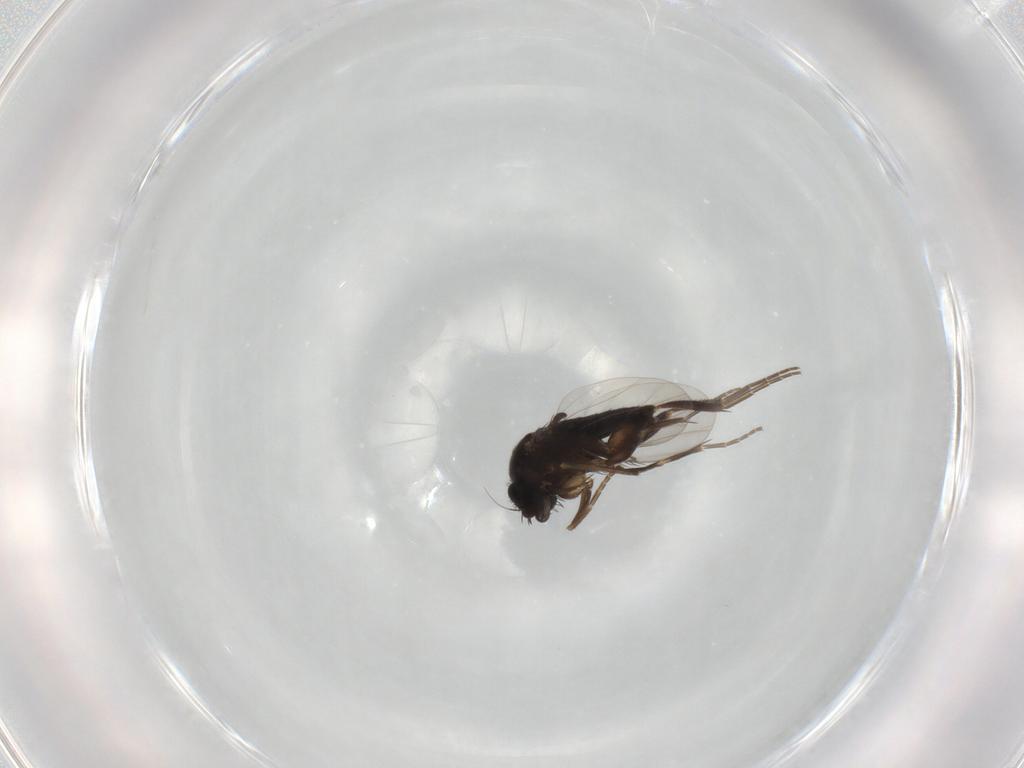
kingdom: Animalia
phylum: Arthropoda
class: Insecta
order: Diptera
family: Phoridae
